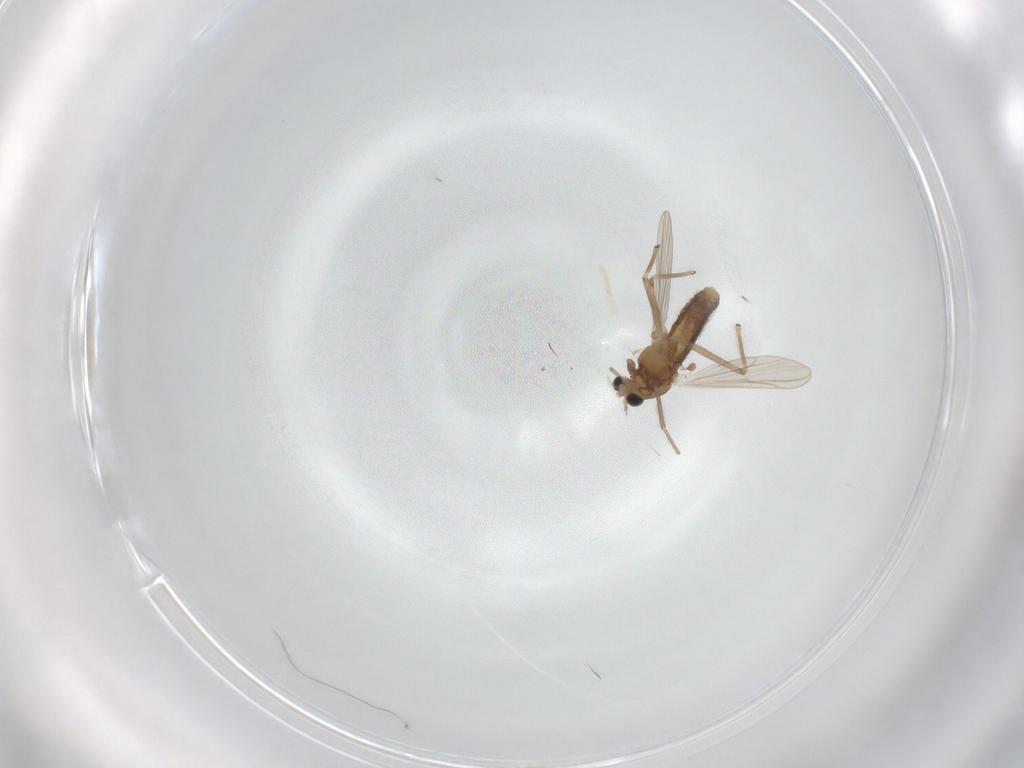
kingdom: Animalia
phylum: Arthropoda
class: Insecta
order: Diptera
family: Chironomidae
